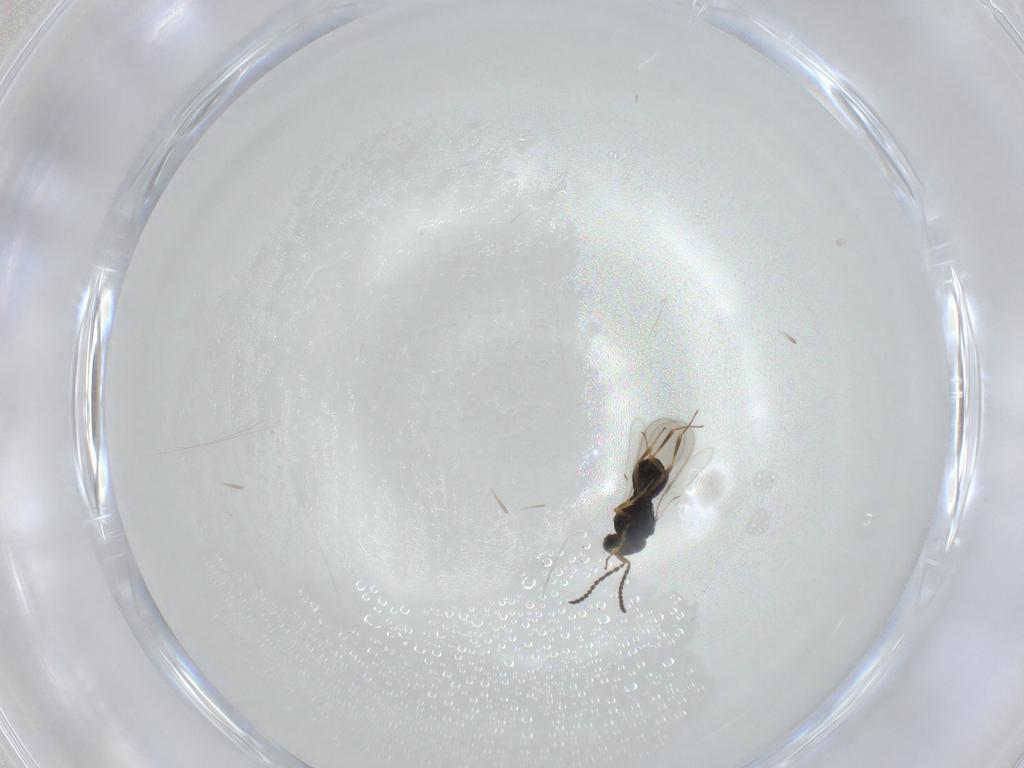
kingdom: Animalia
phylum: Arthropoda
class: Insecta
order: Hymenoptera
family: Scelionidae
